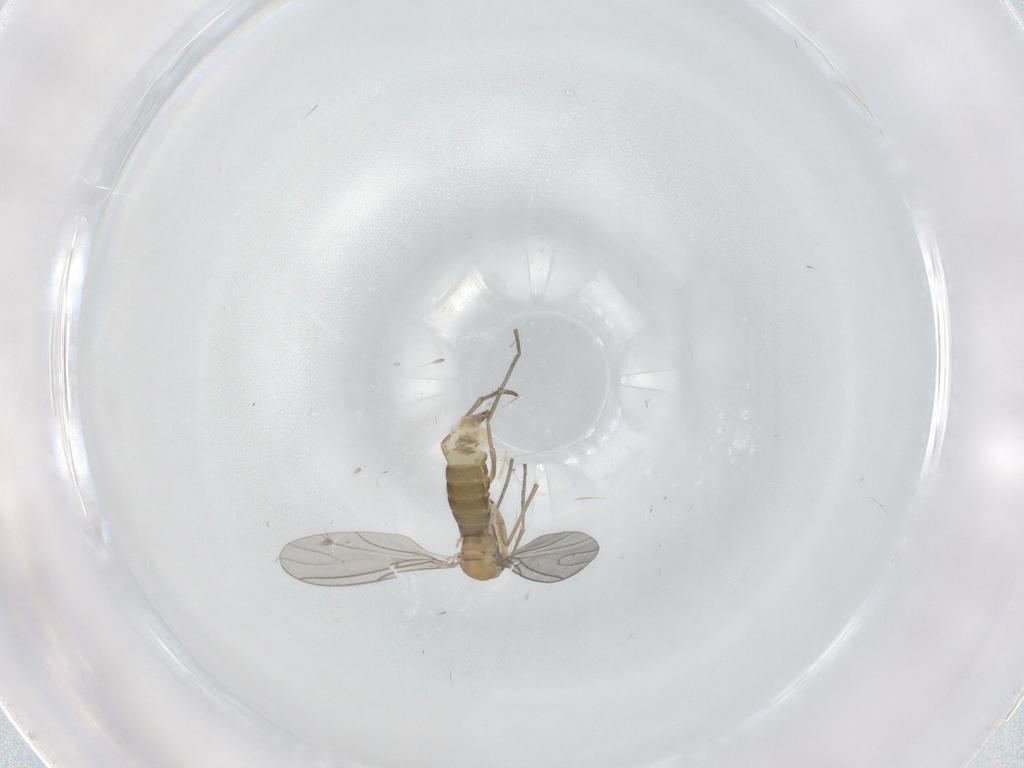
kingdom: Animalia
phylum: Arthropoda
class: Insecta
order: Diptera
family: Sciaridae
